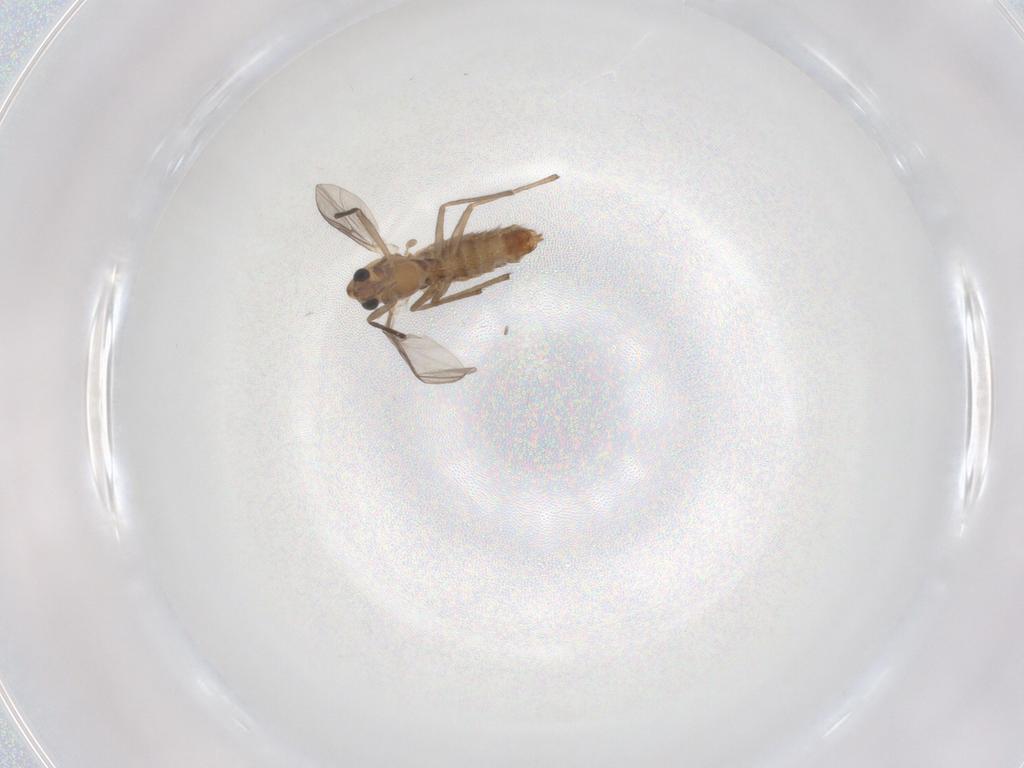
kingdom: Animalia
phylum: Arthropoda
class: Insecta
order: Diptera
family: Chironomidae
